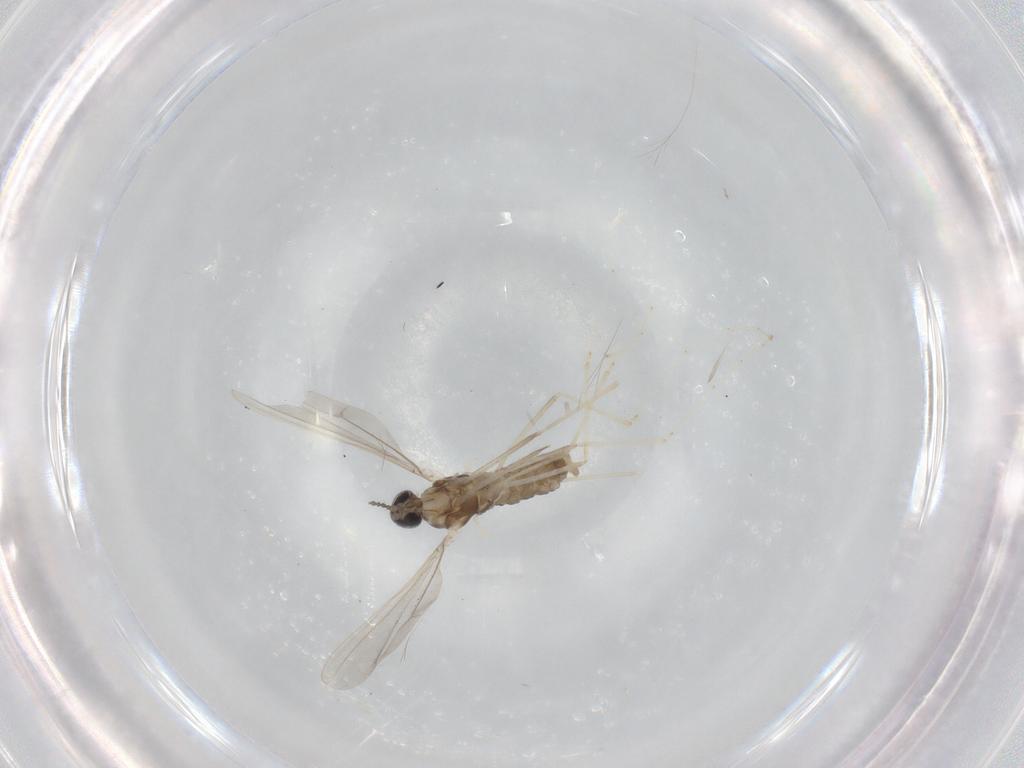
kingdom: Animalia
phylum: Arthropoda
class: Insecta
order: Diptera
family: Cecidomyiidae
